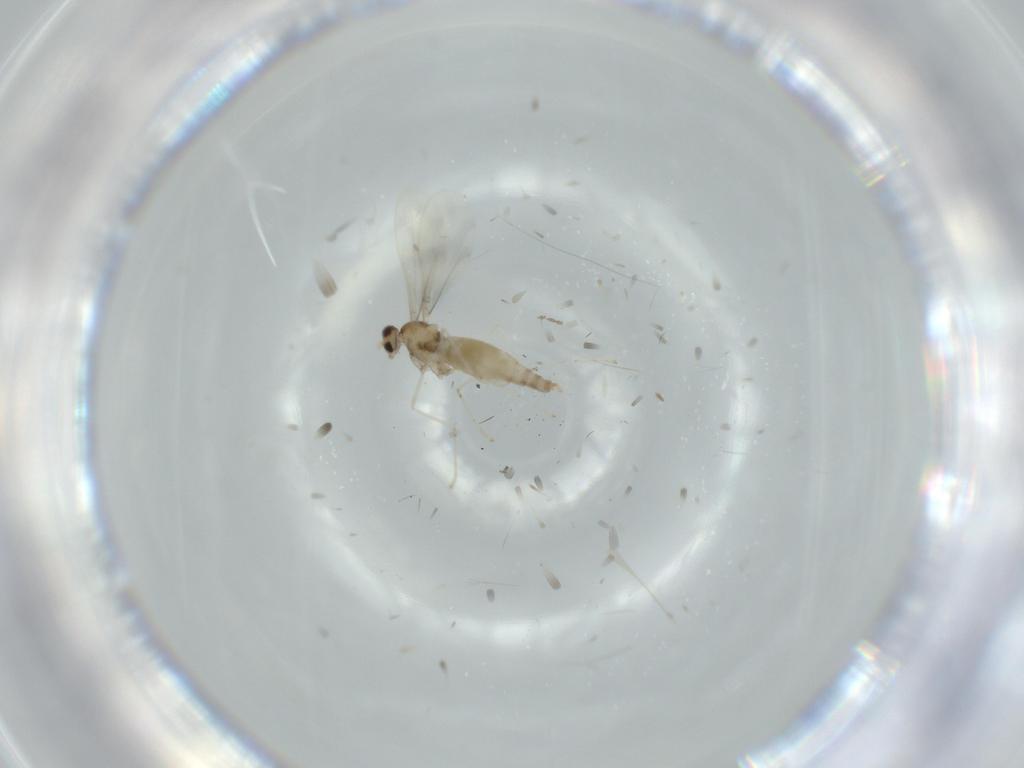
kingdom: Animalia
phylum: Arthropoda
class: Insecta
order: Diptera
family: Cecidomyiidae
